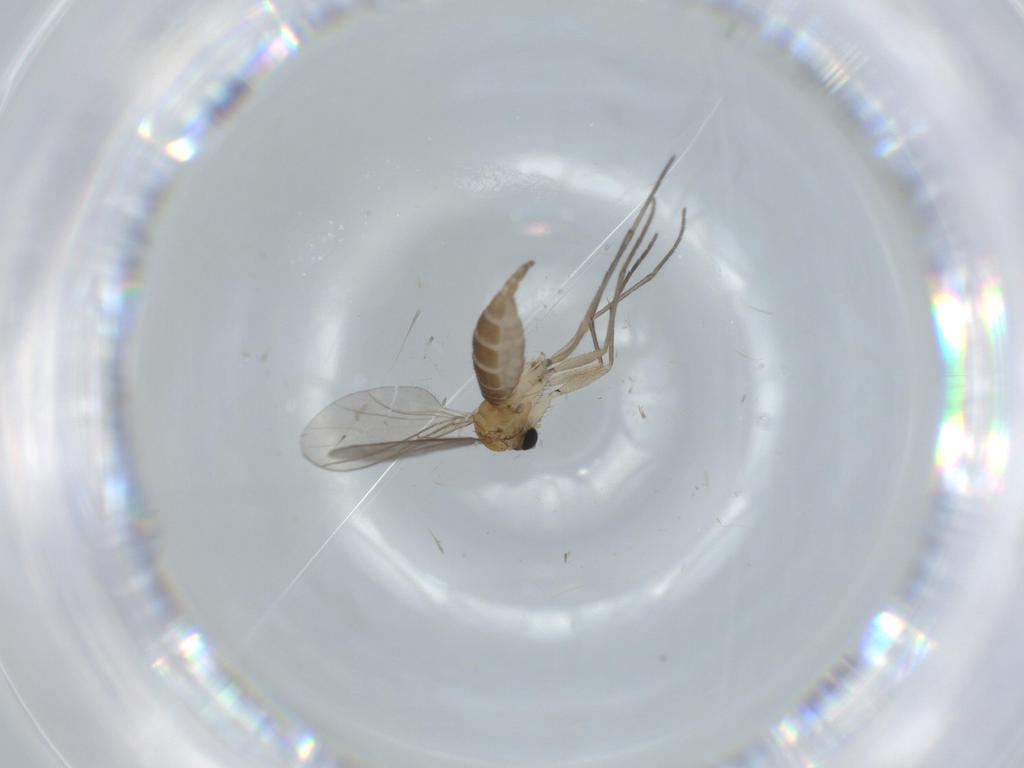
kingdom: Animalia
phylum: Arthropoda
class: Insecta
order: Diptera
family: Sciaridae
